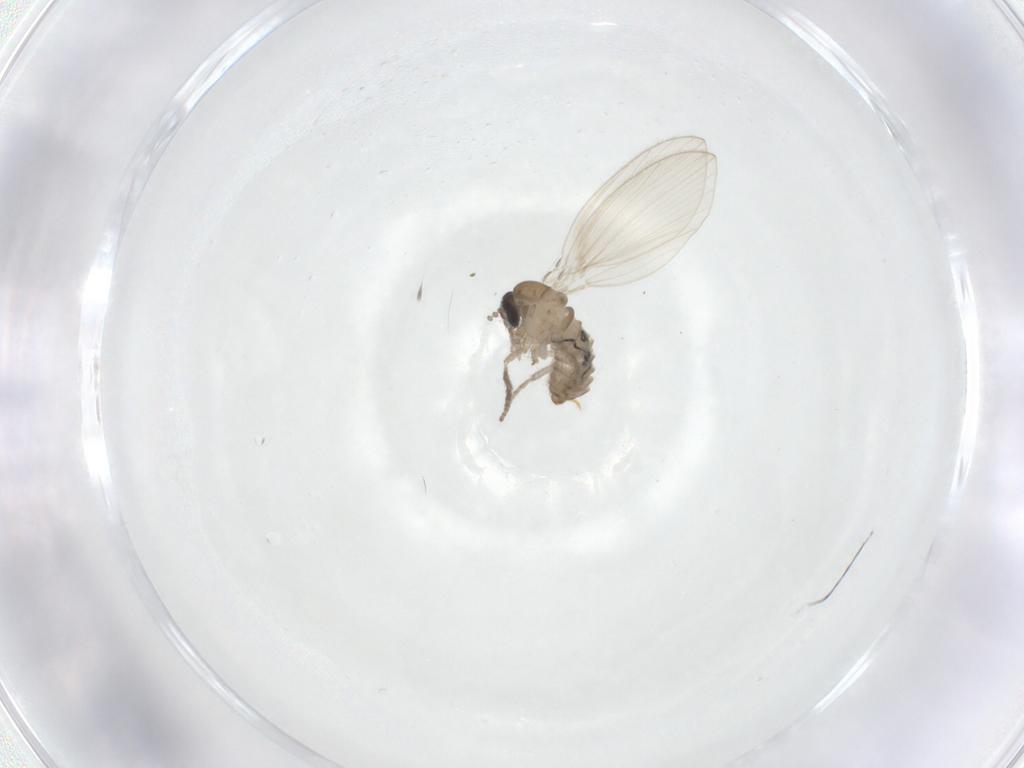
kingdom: Animalia
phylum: Arthropoda
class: Insecta
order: Diptera
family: Psychodidae
